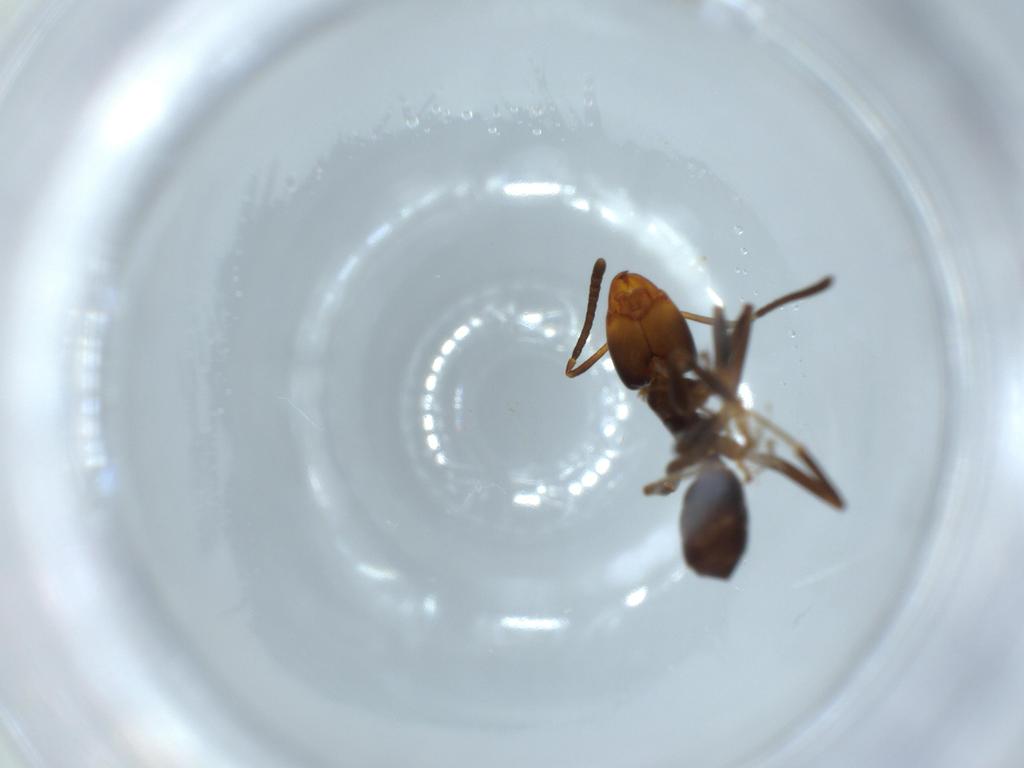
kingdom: Animalia
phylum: Arthropoda
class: Insecta
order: Hymenoptera
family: Formicidae
